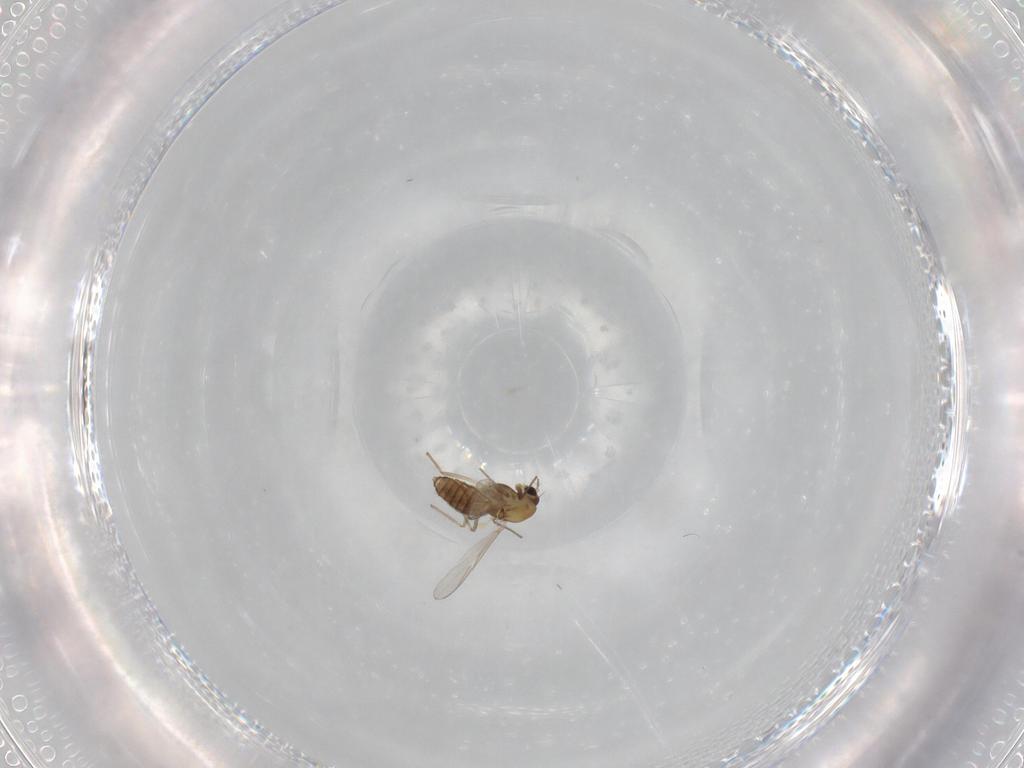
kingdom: Animalia
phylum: Arthropoda
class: Insecta
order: Diptera
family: Chironomidae
